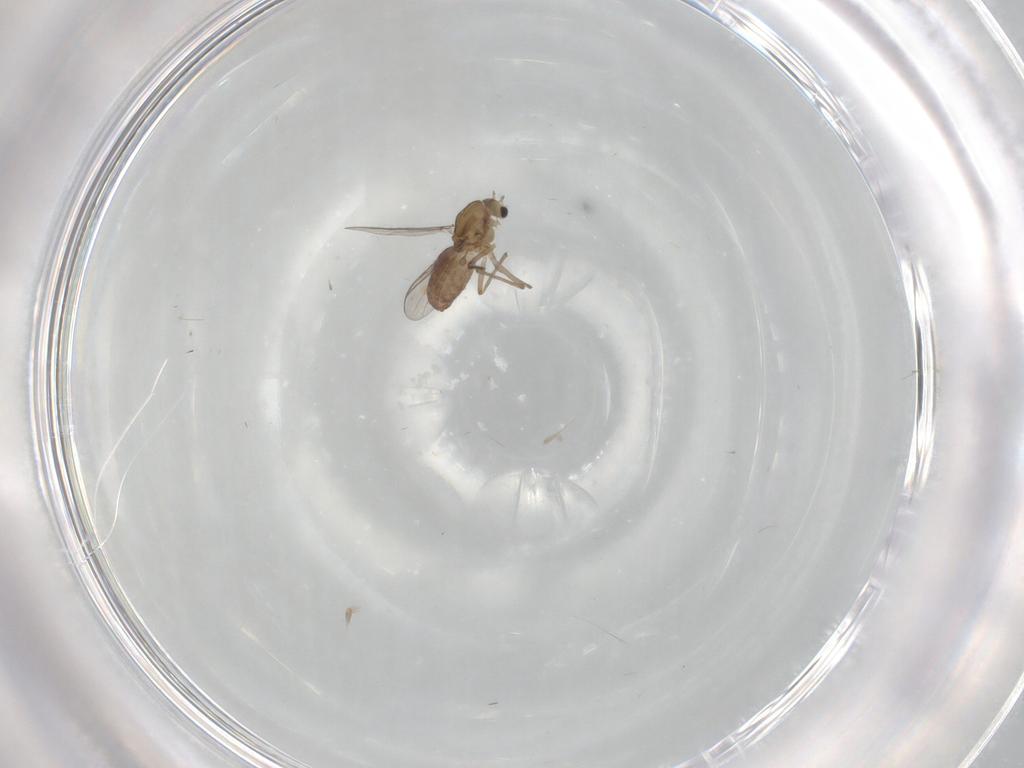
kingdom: Animalia
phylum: Arthropoda
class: Insecta
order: Diptera
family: Chironomidae
